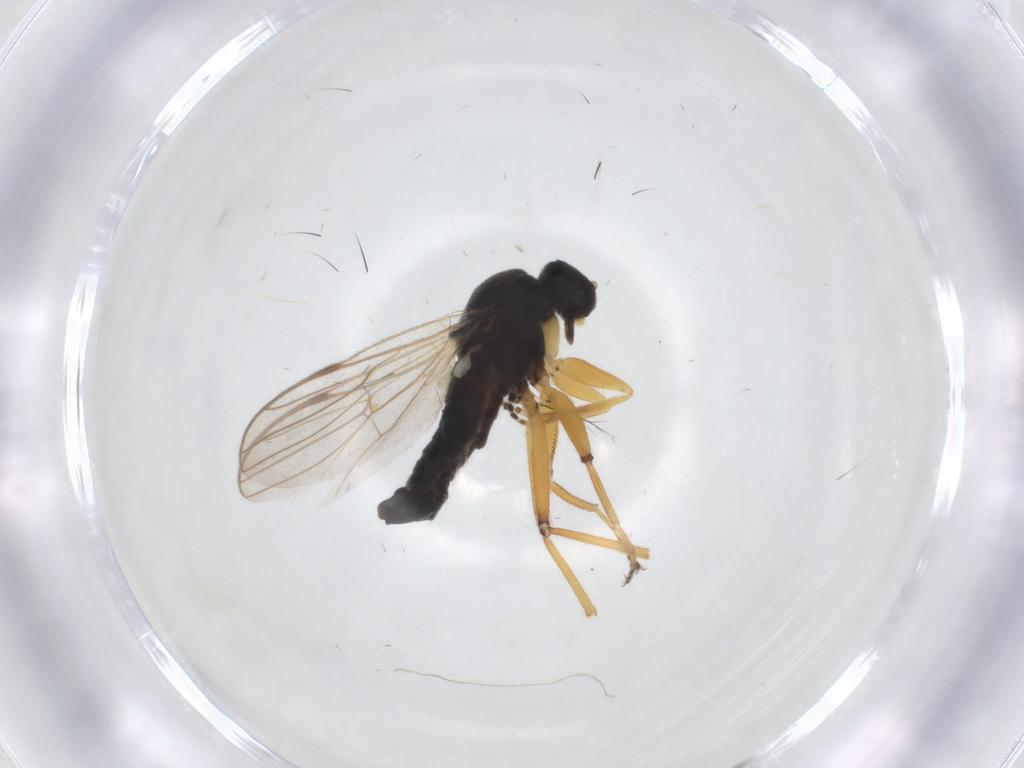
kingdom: Animalia
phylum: Arthropoda
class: Insecta
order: Diptera
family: Hybotidae
